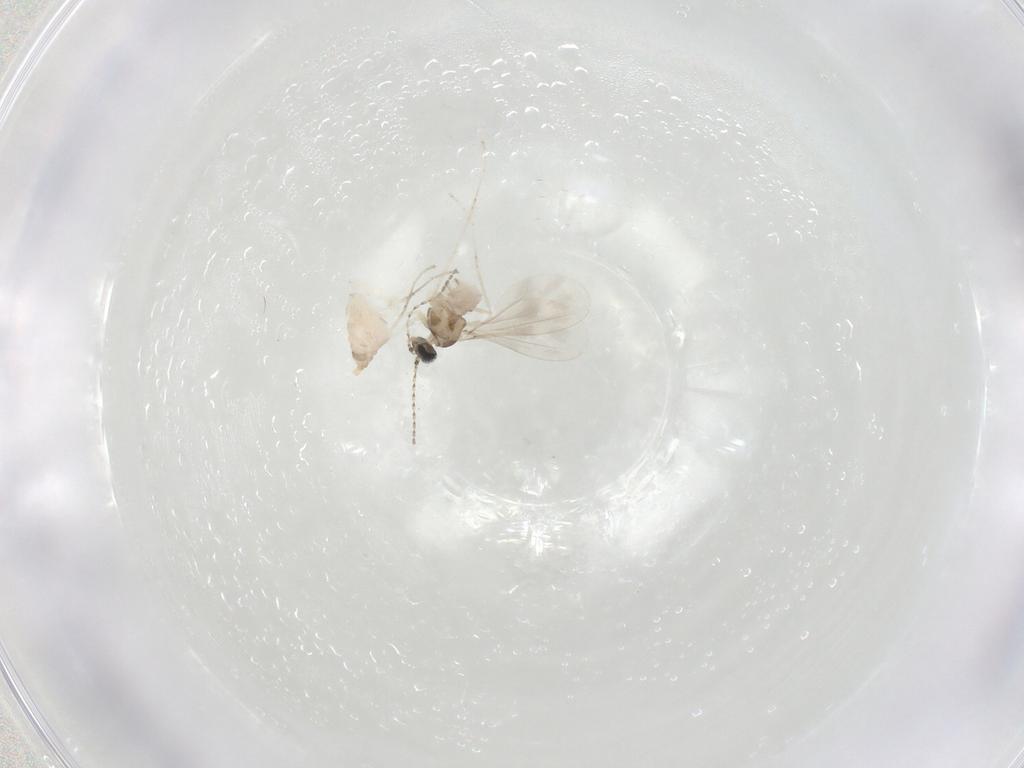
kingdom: Animalia
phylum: Arthropoda
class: Insecta
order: Diptera
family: Cecidomyiidae
